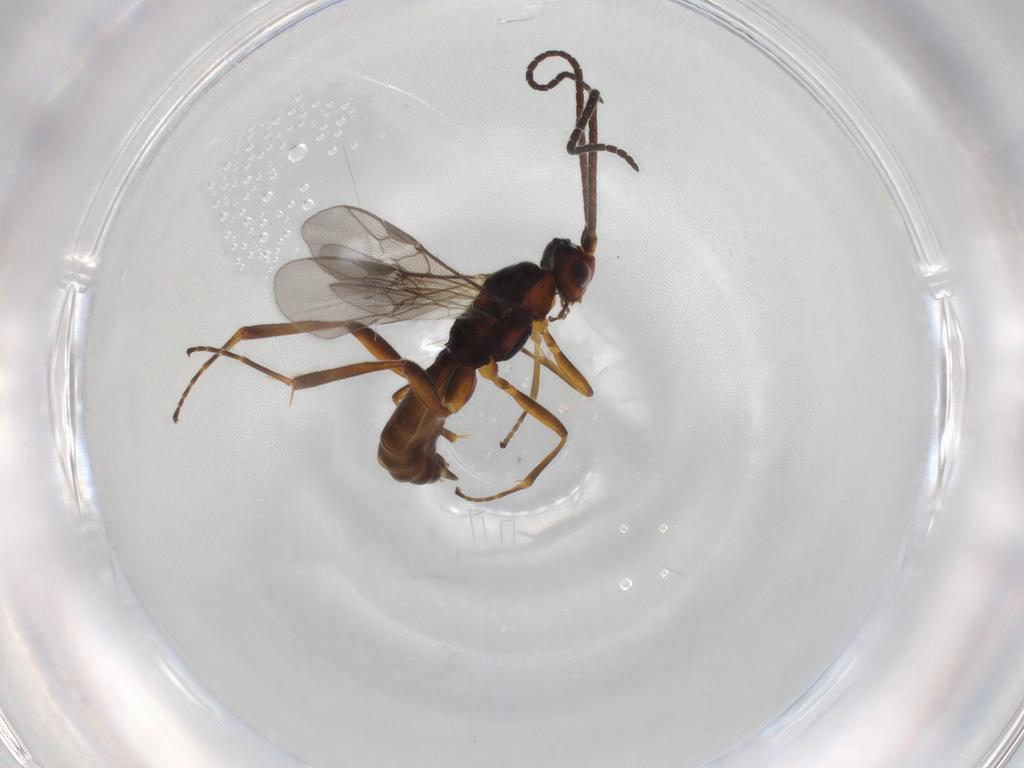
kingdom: Animalia
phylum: Arthropoda
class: Insecta
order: Hymenoptera
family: Braconidae
